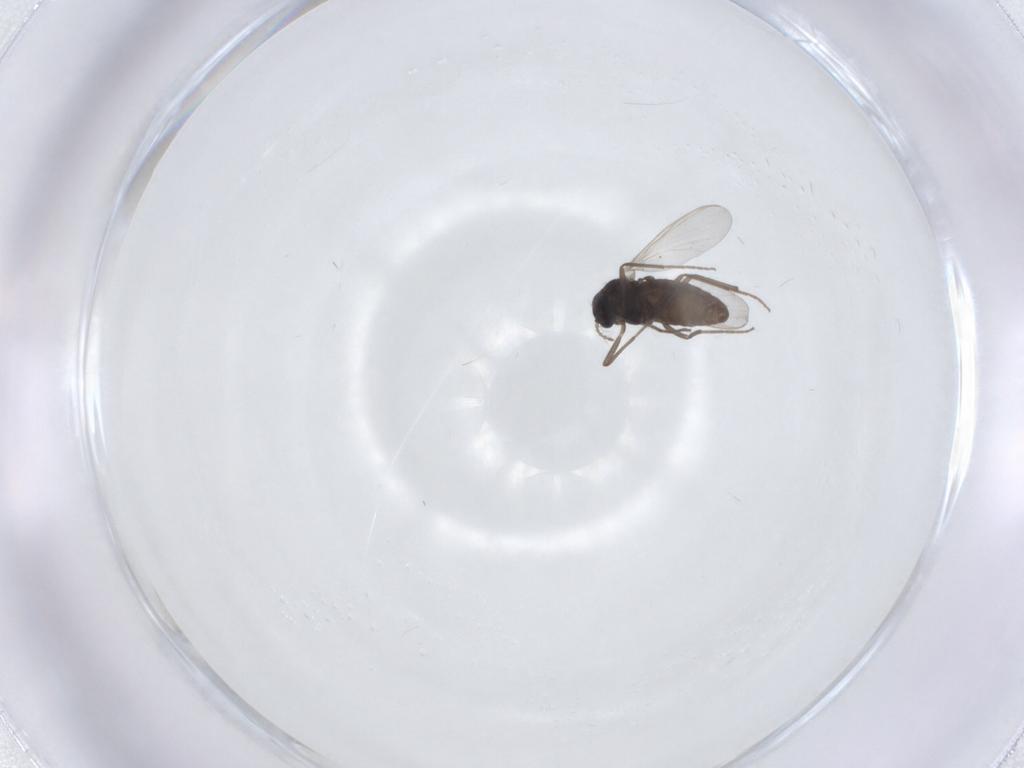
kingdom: Animalia
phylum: Arthropoda
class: Insecta
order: Diptera
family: Chironomidae
